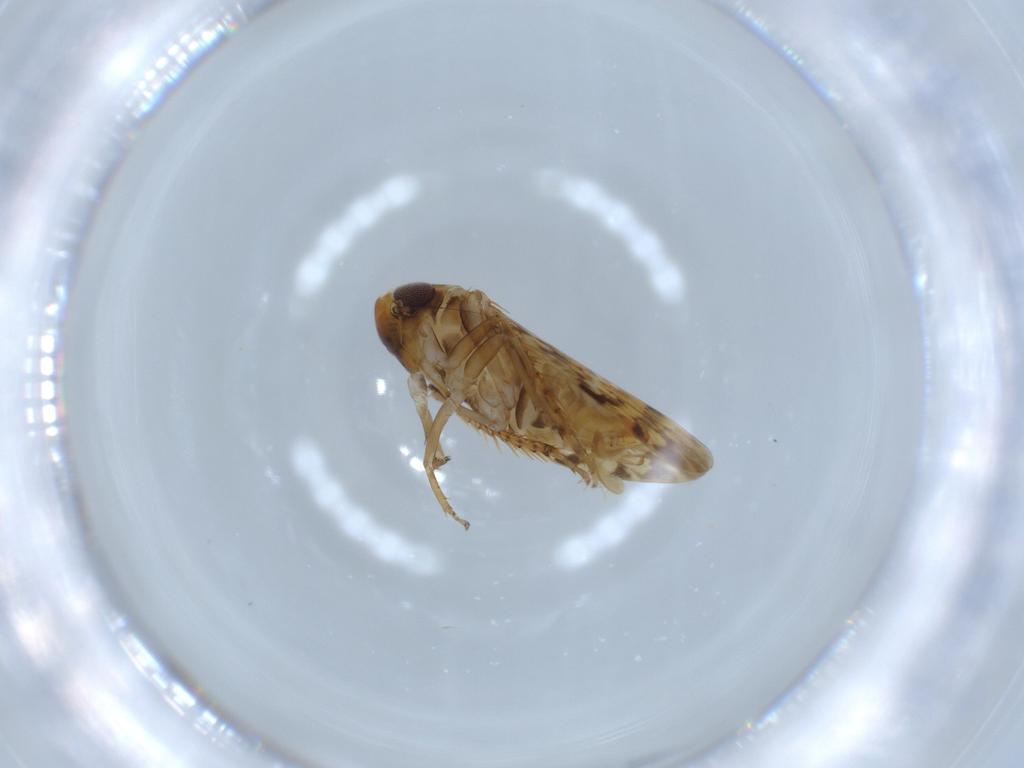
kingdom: Animalia
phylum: Arthropoda
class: Insecta
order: Hemiptera
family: Cicadellidae
